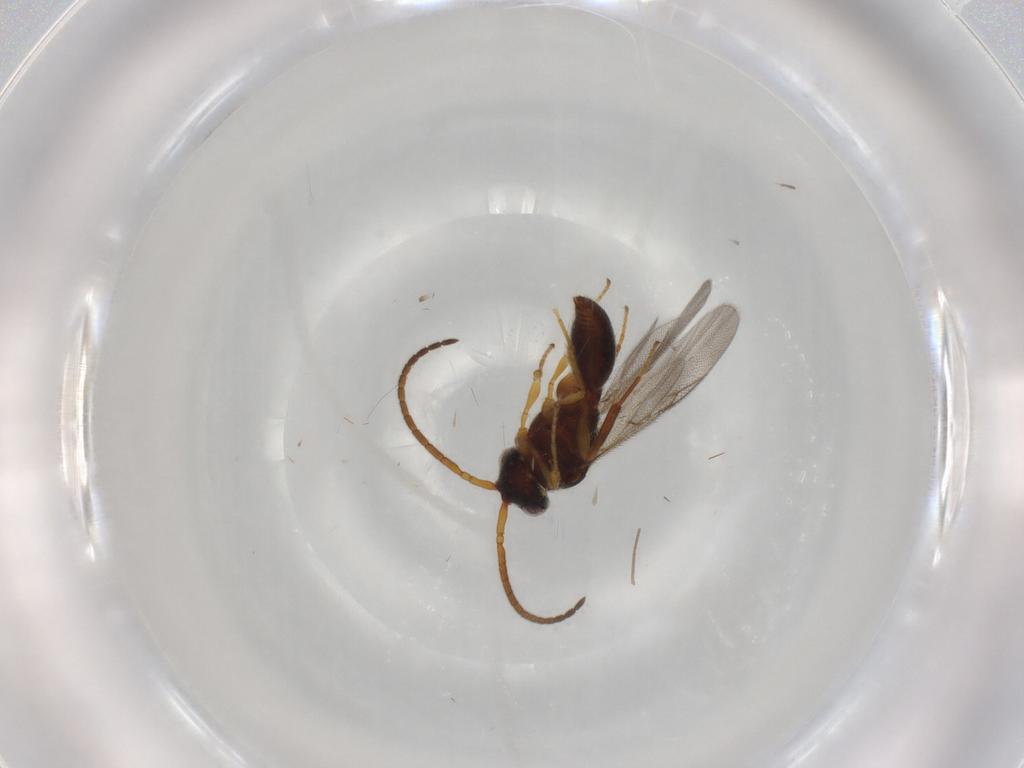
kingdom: Animalia
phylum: Arthropoda
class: Insecta
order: Hymenoptera
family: Diapriidae
